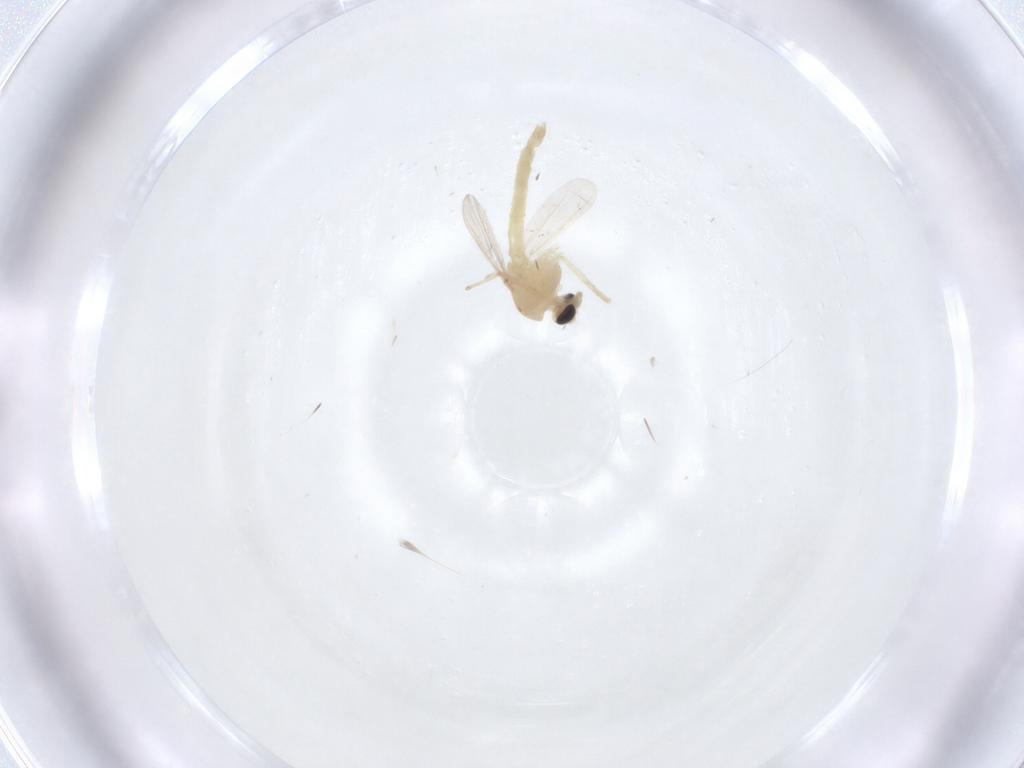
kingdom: Animalia
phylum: Arthropoda
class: Insecta
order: Diptera
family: Chironomidae
